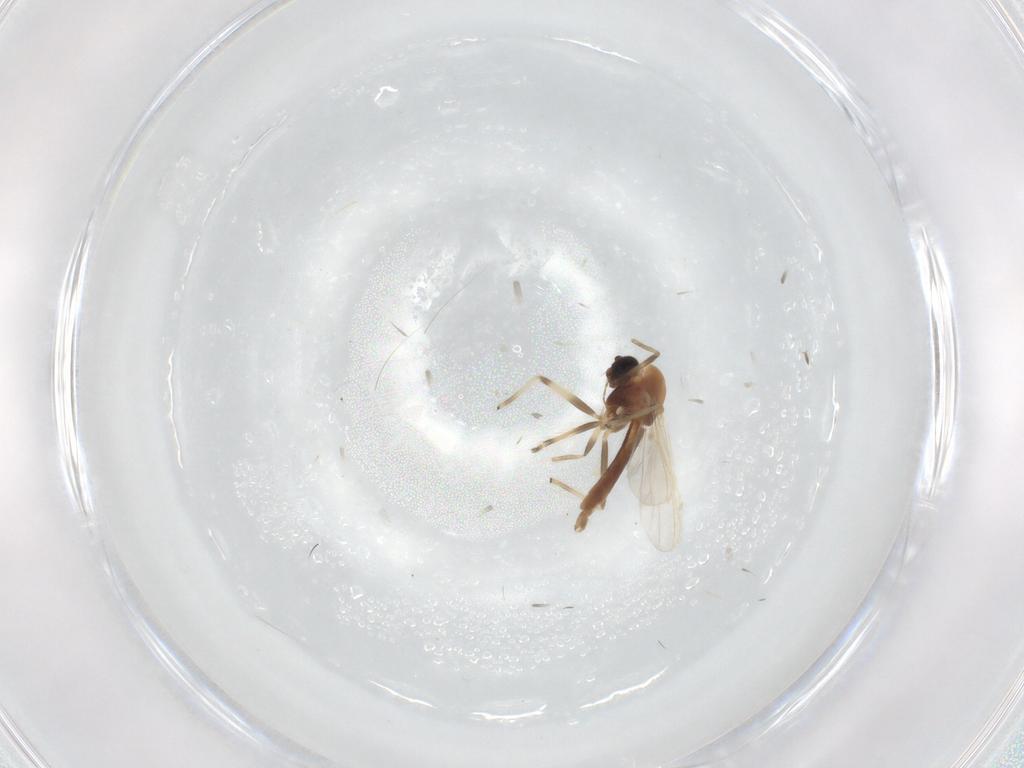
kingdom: Animalia
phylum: Arthropoda
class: Insecta
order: Diptera
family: Chironomidae
